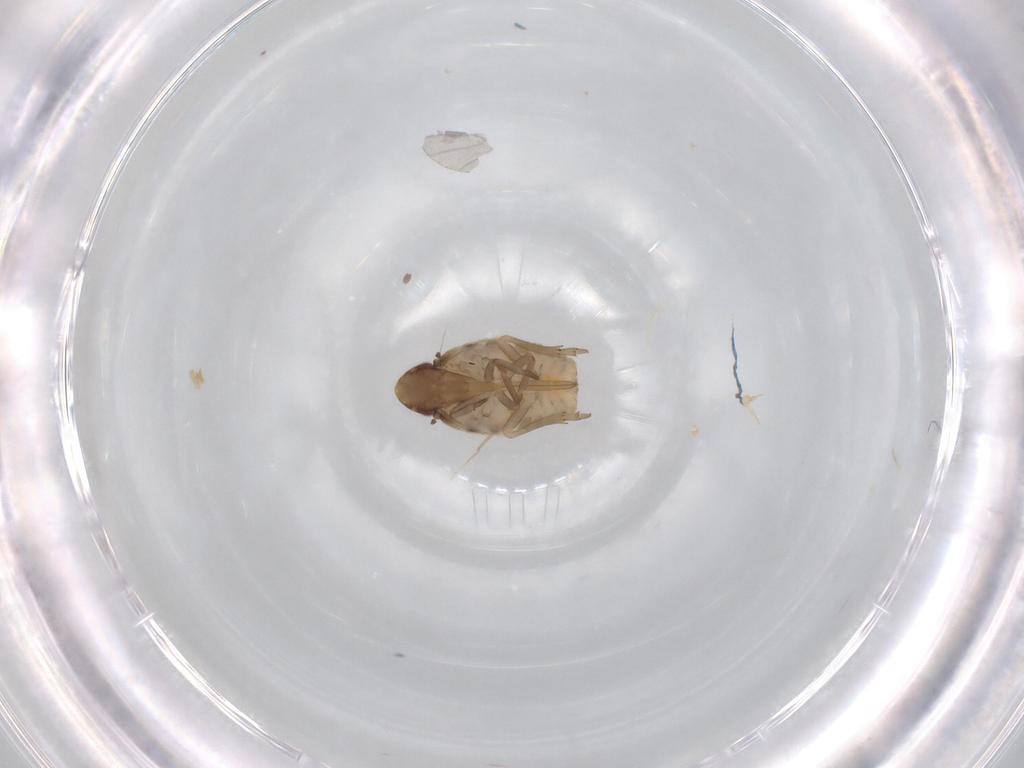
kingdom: Animalia
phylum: Arthropoda
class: Insecta
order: Hemiptera
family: Flatidae
